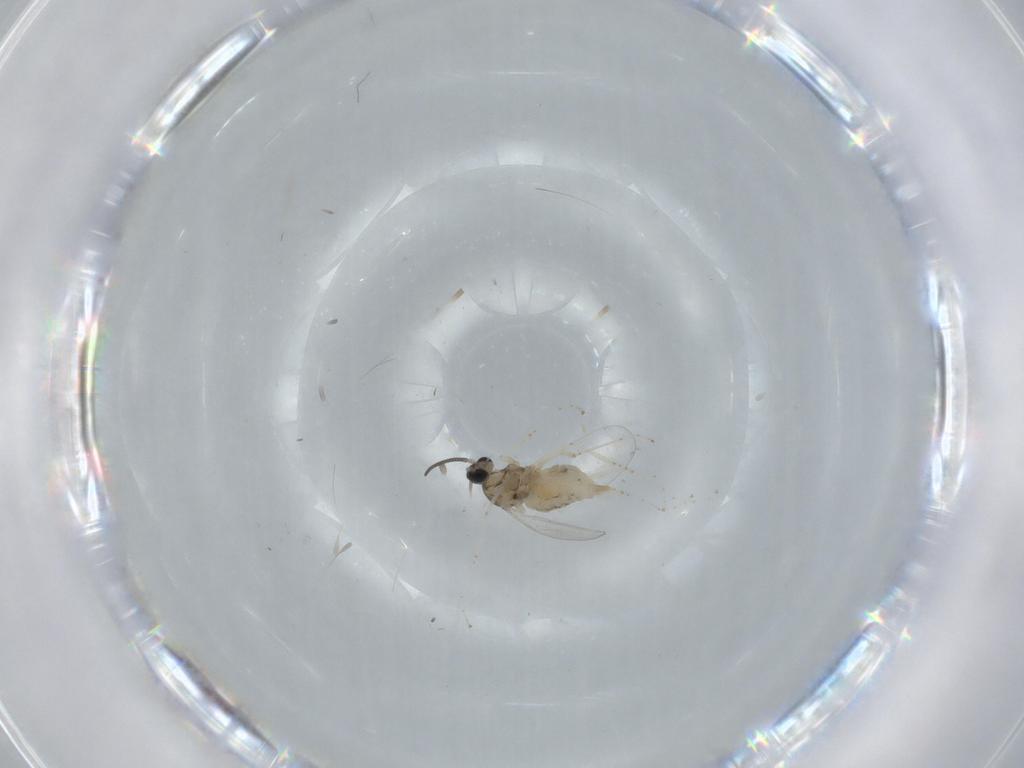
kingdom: Animalia
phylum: Arthropoda
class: Insecta
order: Diptera
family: Cecidomyiidae
